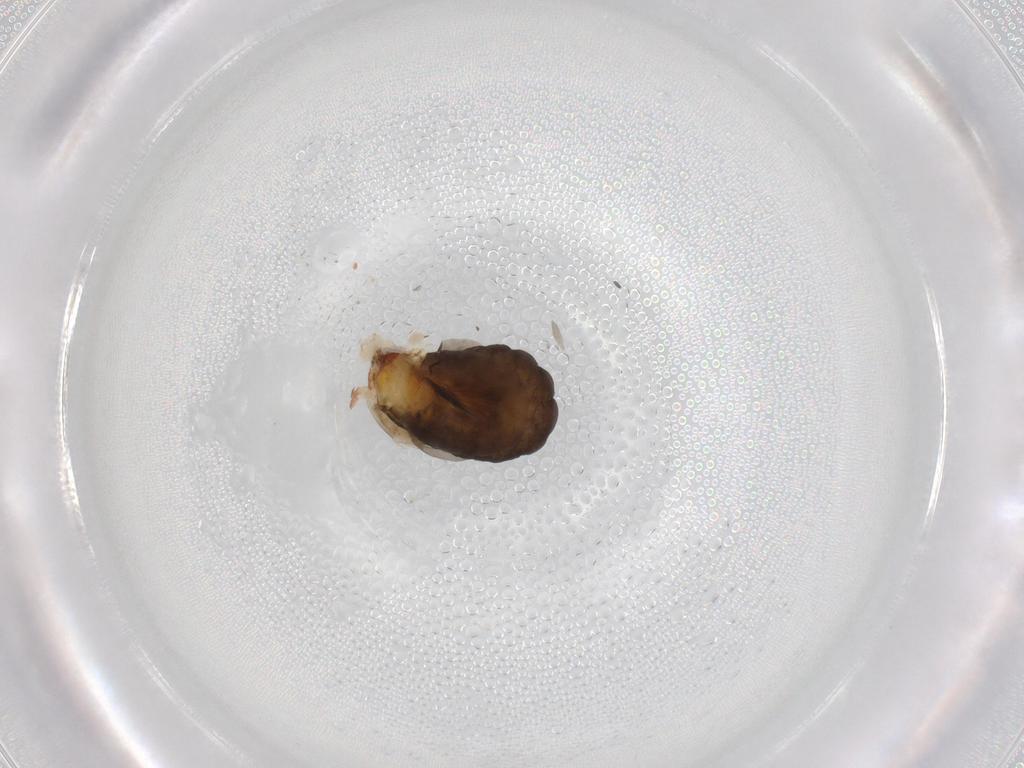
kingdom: Animalia
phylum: Arthropoda
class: Insecta
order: Hymenoptera
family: Dryinidae
